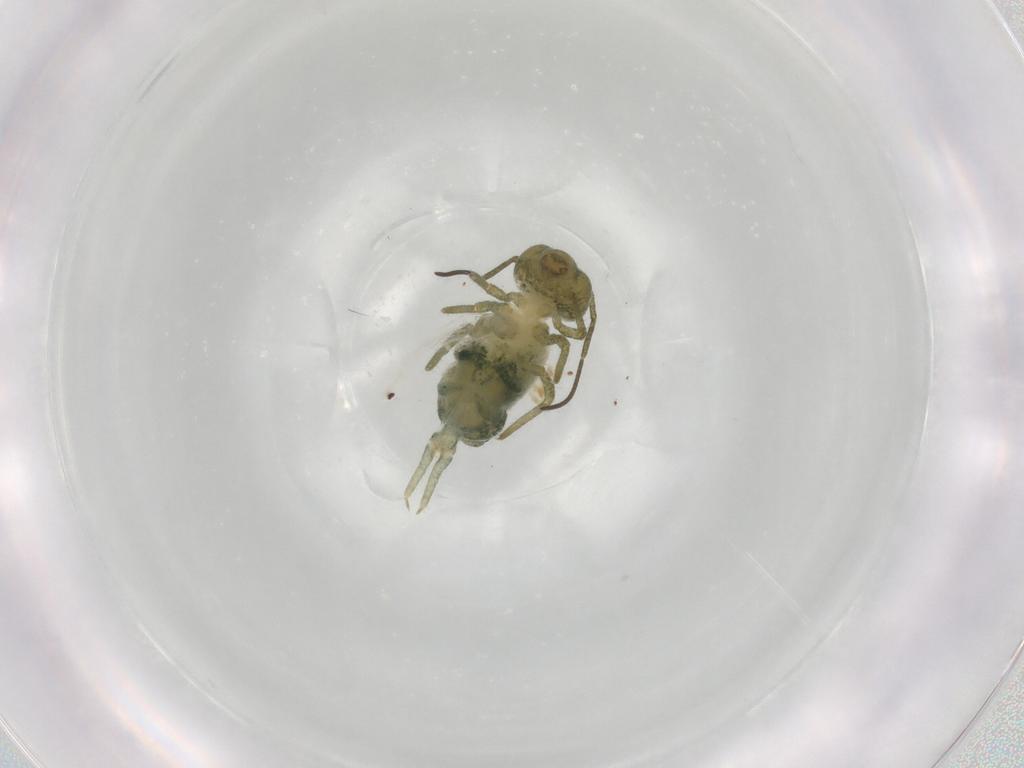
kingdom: Animalia
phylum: Arthropoda
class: Collembola
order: Symphypleona
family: Sminthuridae
